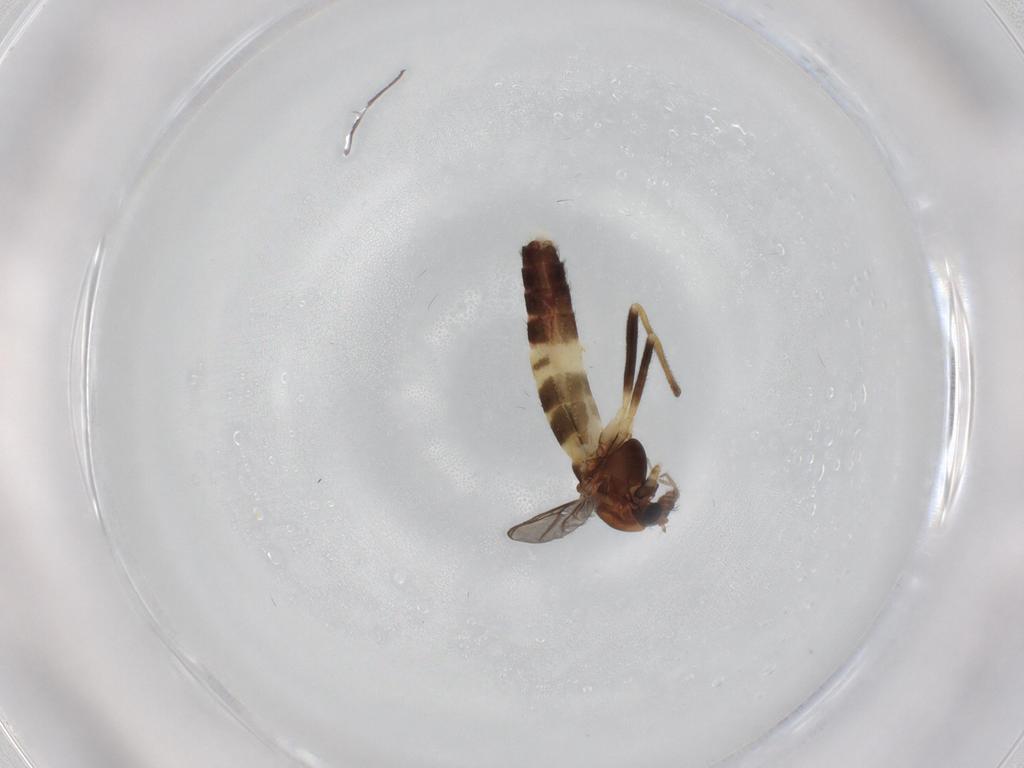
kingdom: Animalia
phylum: Arthropoda
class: Insecta
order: Diptera
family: Chironomidae
